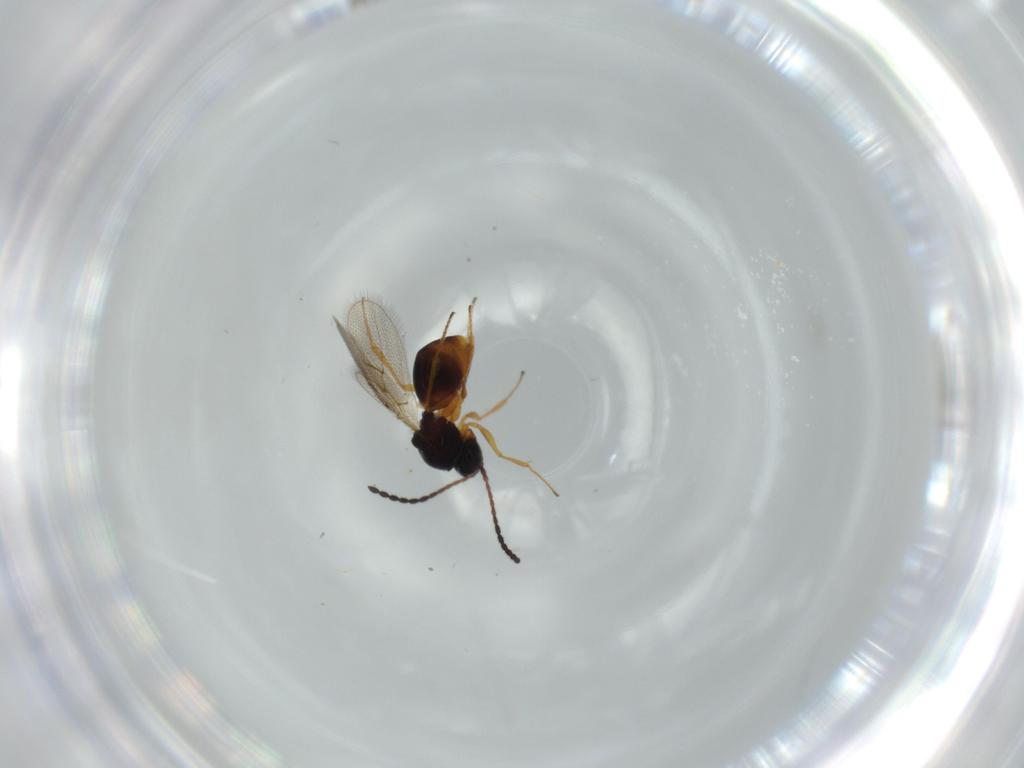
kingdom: Animalia
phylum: Arthropoda
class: Insecta
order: Hymenoptera
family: Figitidae
